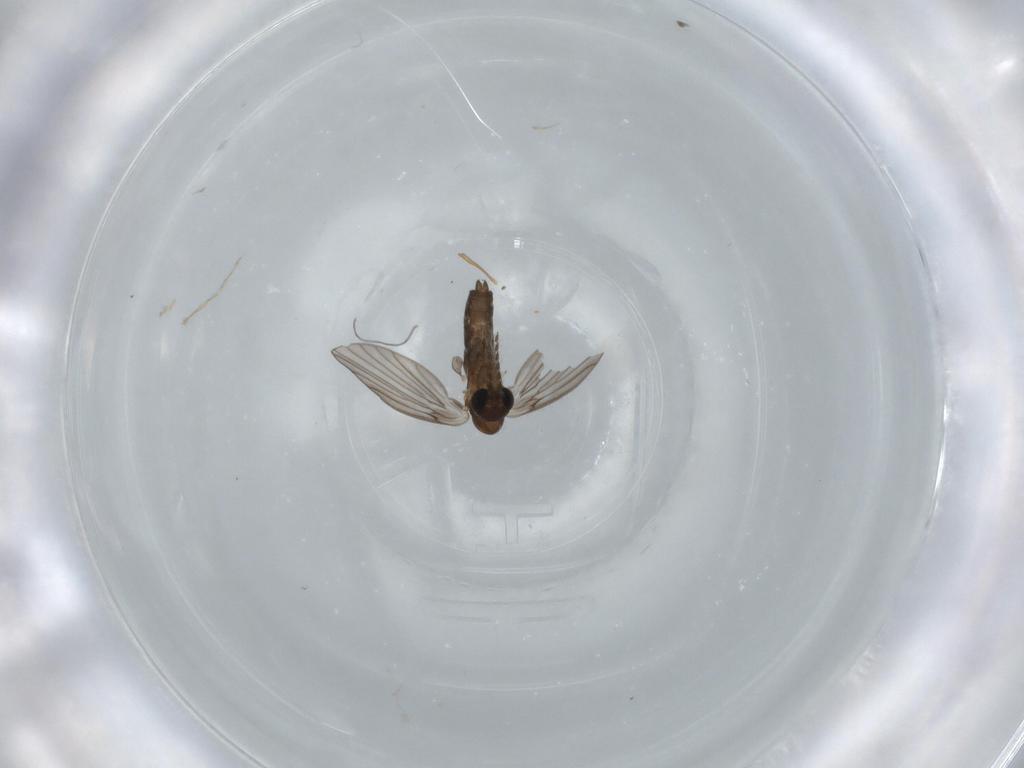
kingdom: Animalia
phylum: Arthropoda
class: Insecta
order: Diptera
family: Psychodidae
